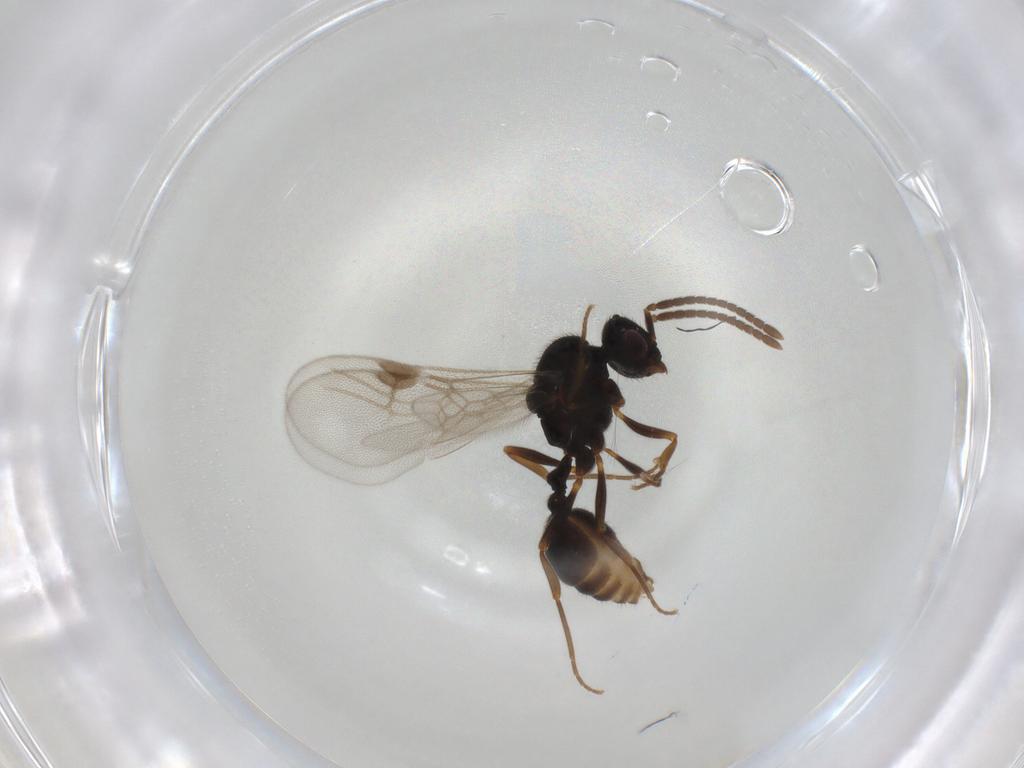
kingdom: Animalia
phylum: Arthropoda
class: Insecta
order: Hymenoptera
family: Formicidae
